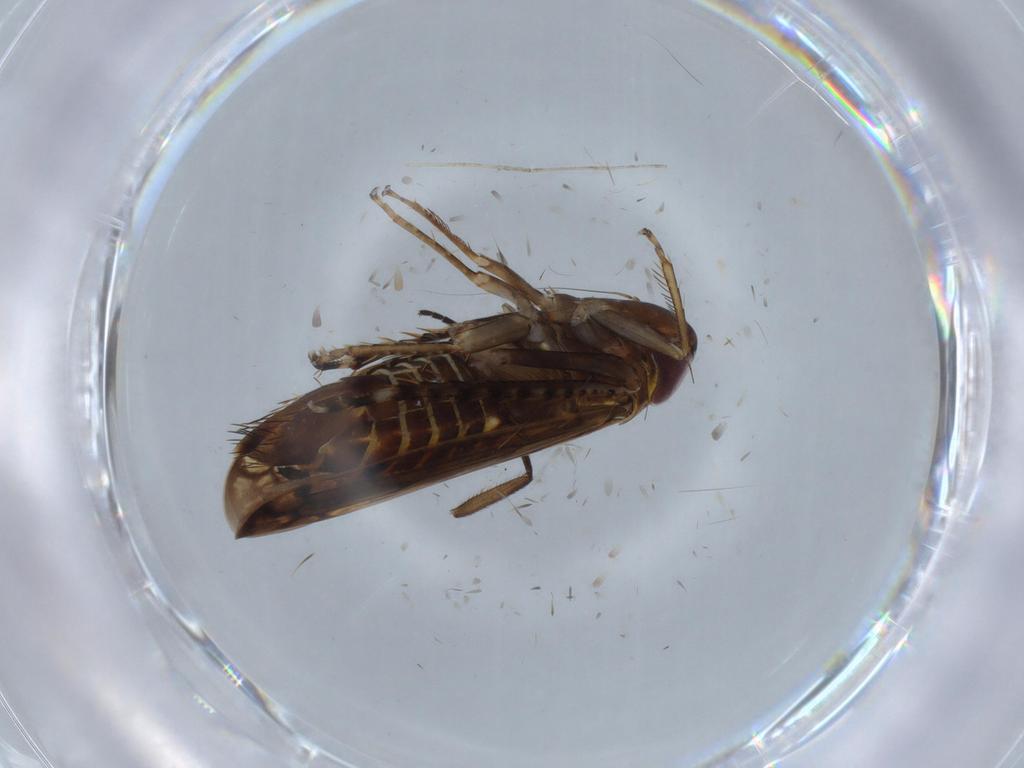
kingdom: Animalia
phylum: Arthropoda
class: Insecta
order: Hemiptera
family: Cicadellidae
